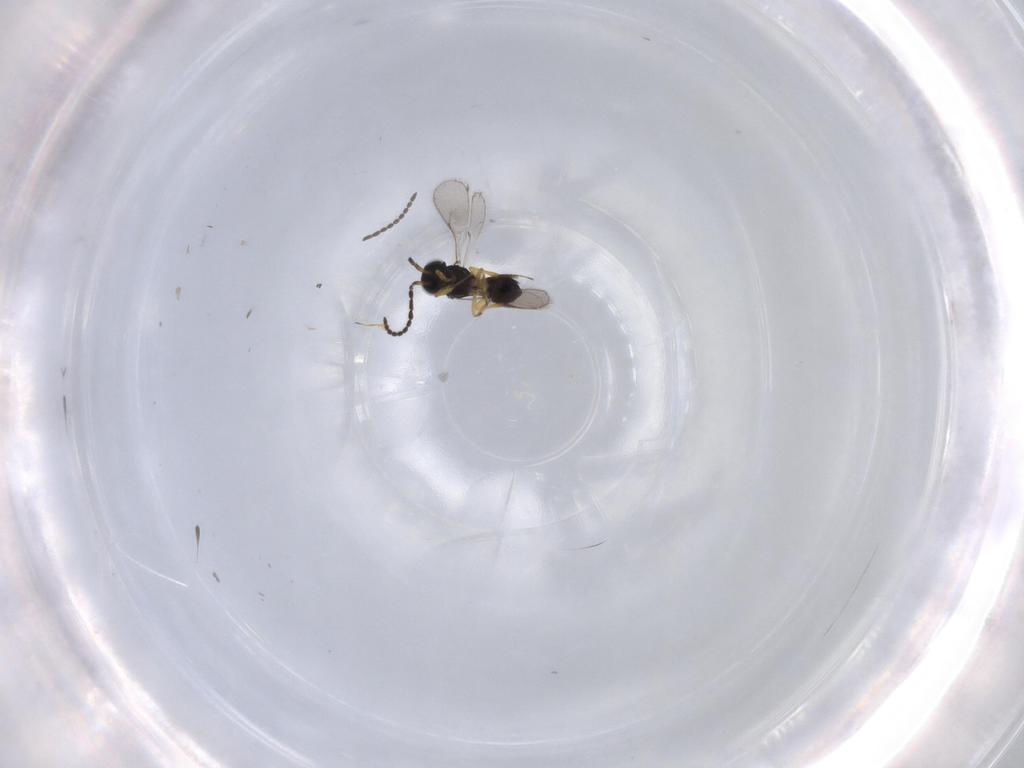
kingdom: Animalia
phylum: Arthropoda
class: Insecta
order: Hymenoptera
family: Scelionidae
